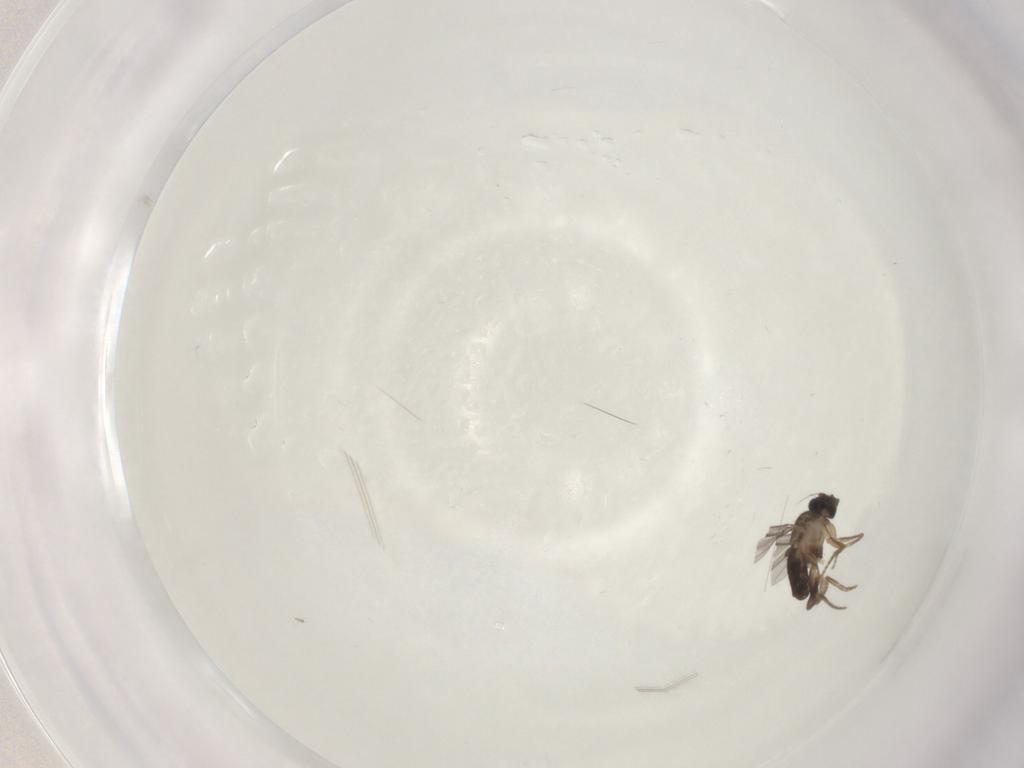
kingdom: Animalia
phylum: Arthropoda
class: Insecta
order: Diptera
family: Psychodidae
